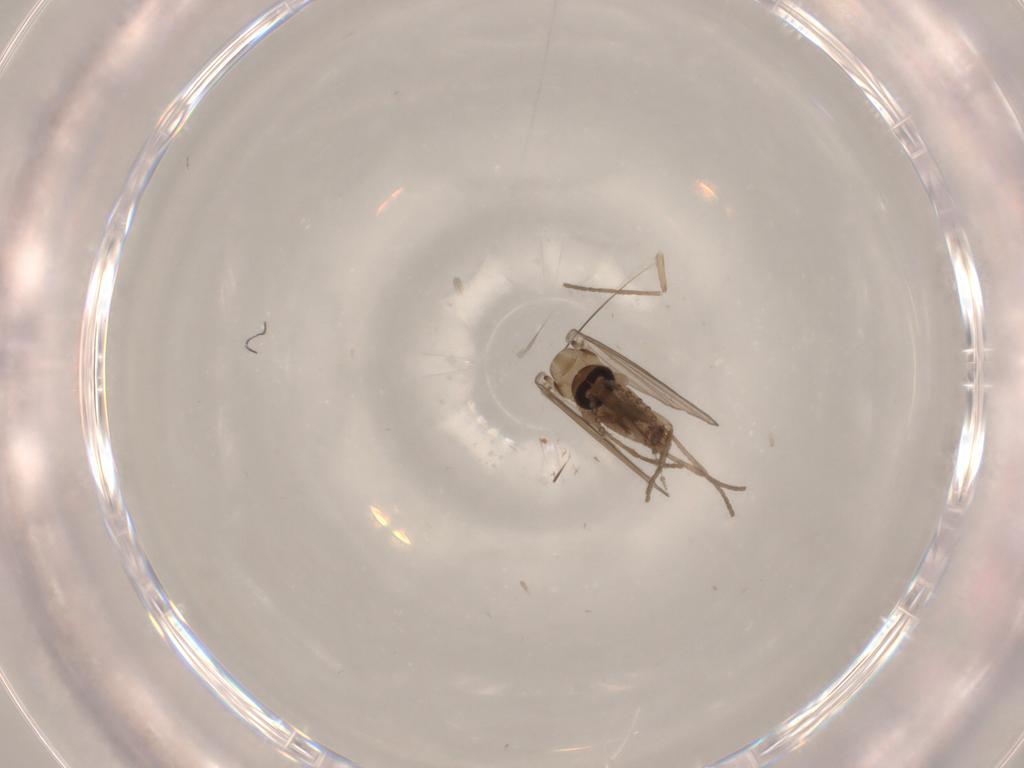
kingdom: Animalia
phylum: Arthropoda
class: Insecta
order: Diptera
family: Psychodidae
